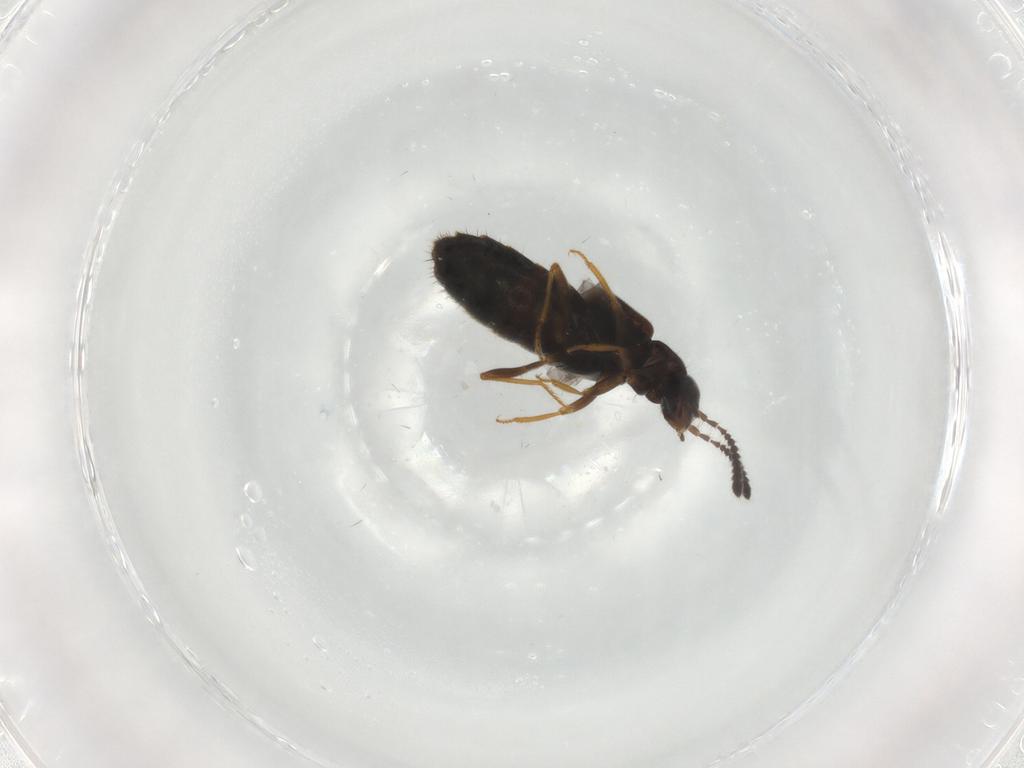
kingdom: Animalia
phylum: Arthropoda
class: Insecta
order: Coleoptera
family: Staphylinidae
